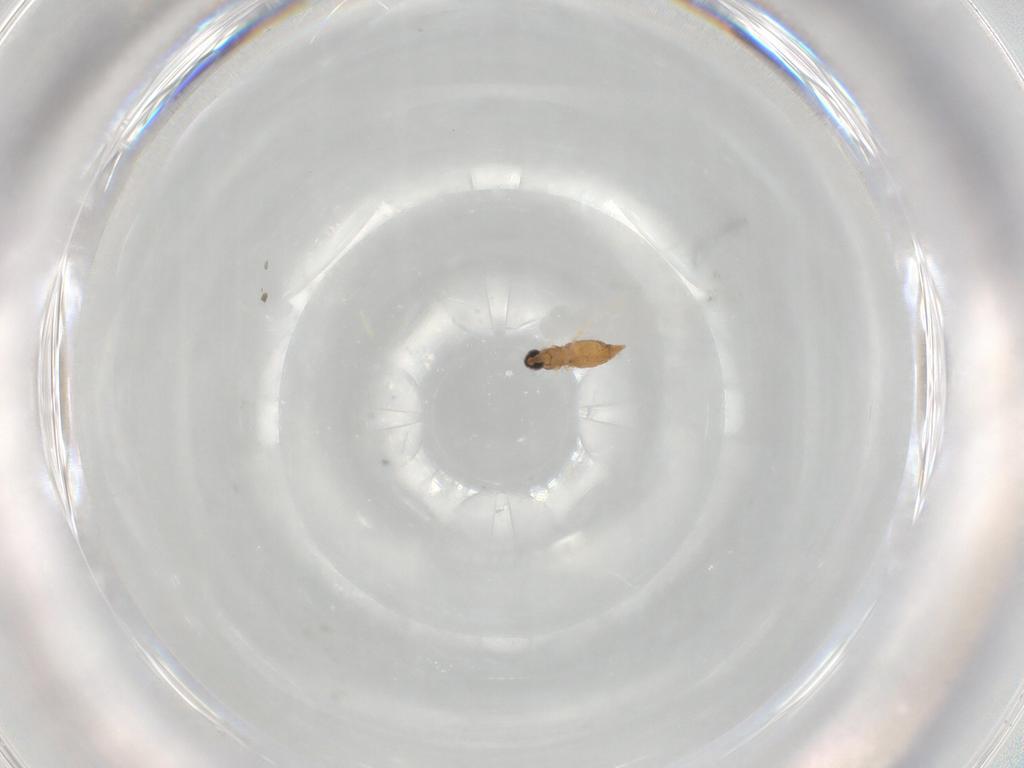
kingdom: Animalia
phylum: Arthropoda
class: Insecta
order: Diptera
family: Cecidomyiidae
